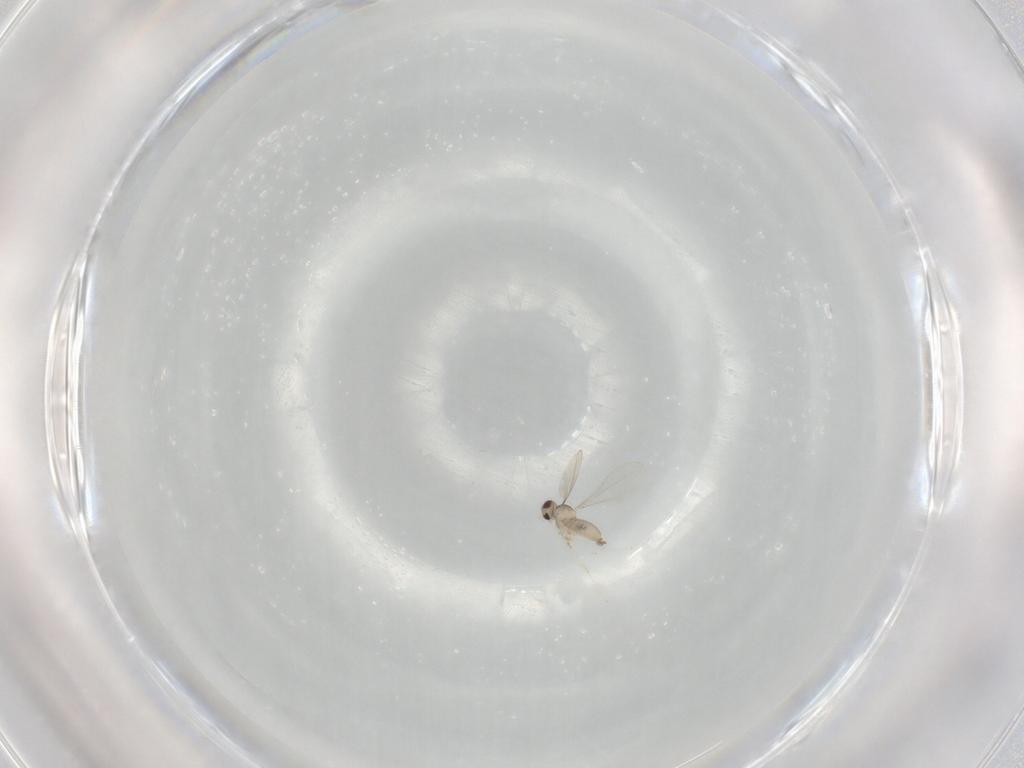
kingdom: Animalia
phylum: Arthropoda
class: Insecta
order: Diptera
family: Cecidomyiidae
